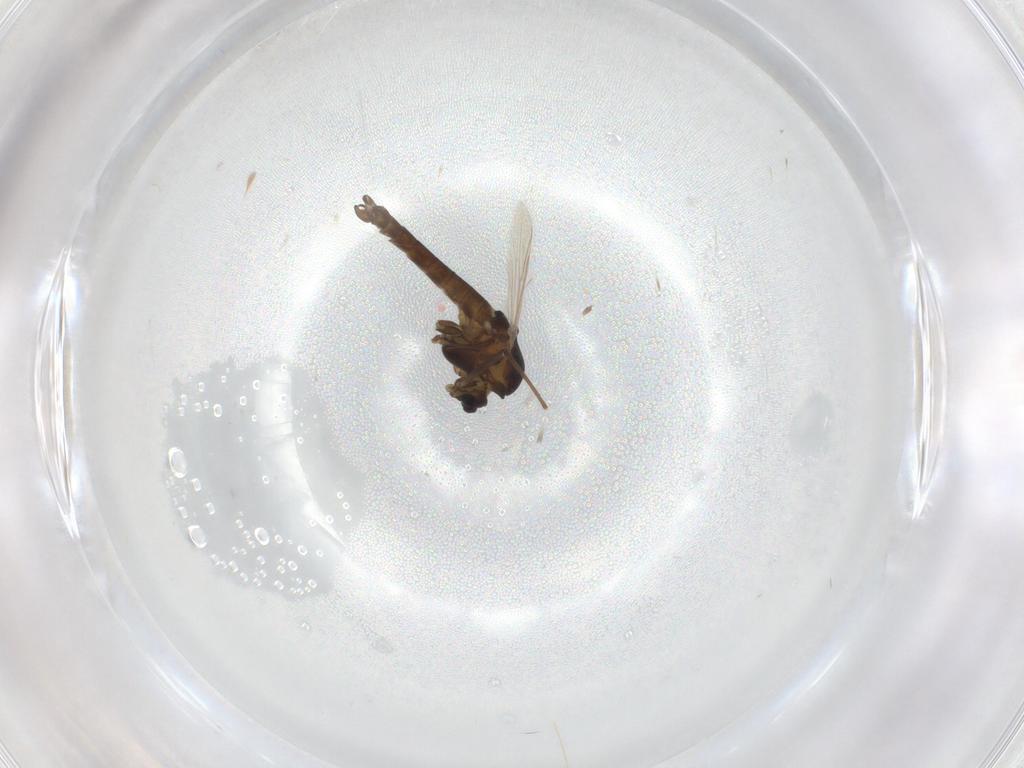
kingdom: Animalia
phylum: Arthropoda
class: Insecta
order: Diptera
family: Chironomidae
